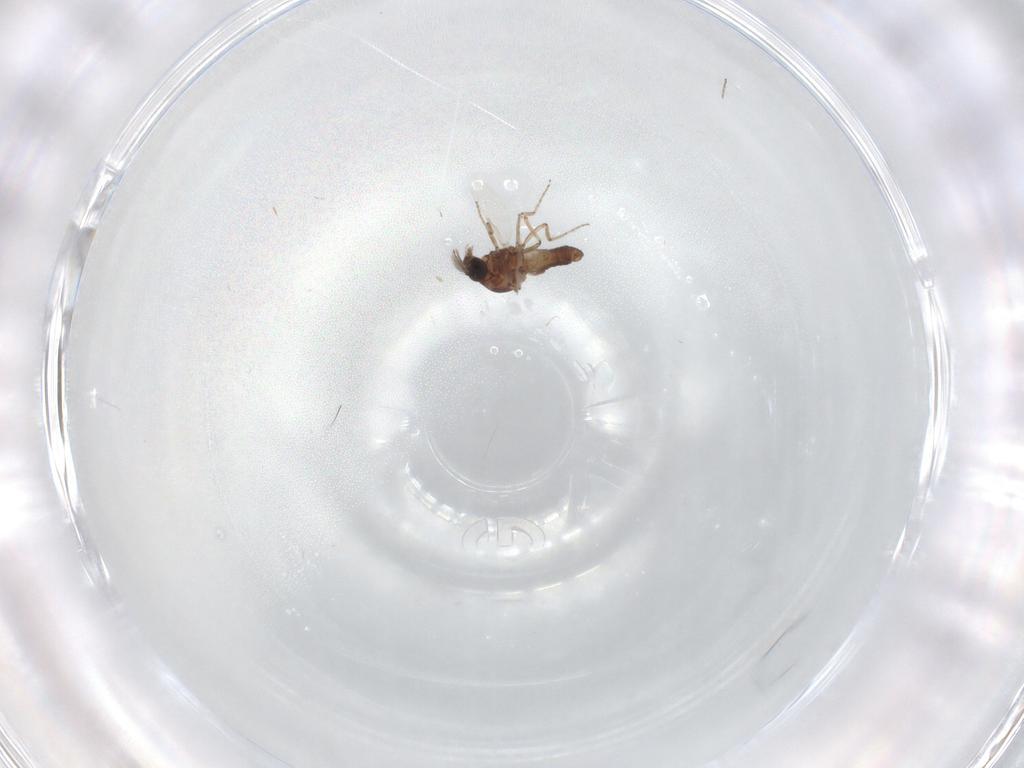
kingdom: Animalia
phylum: Arthropoda
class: Insecta
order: Diptera
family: Ceratopogonidae
